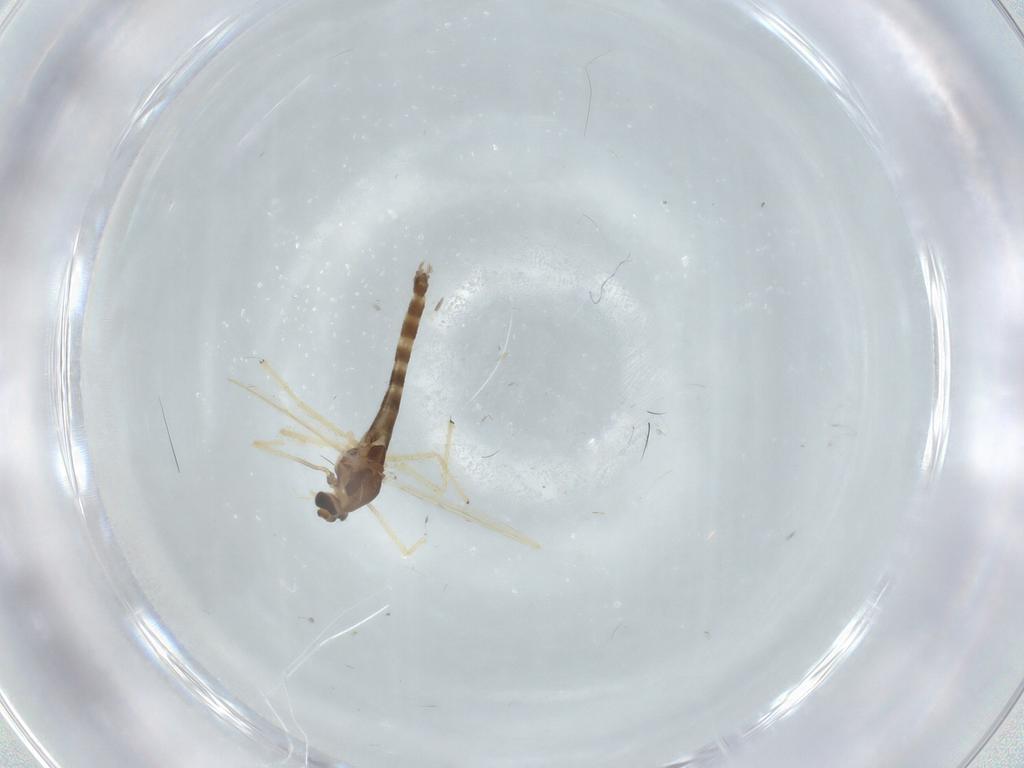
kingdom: Animalia
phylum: Arthropoda
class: Insecta
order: Diptera
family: Chironomidae
